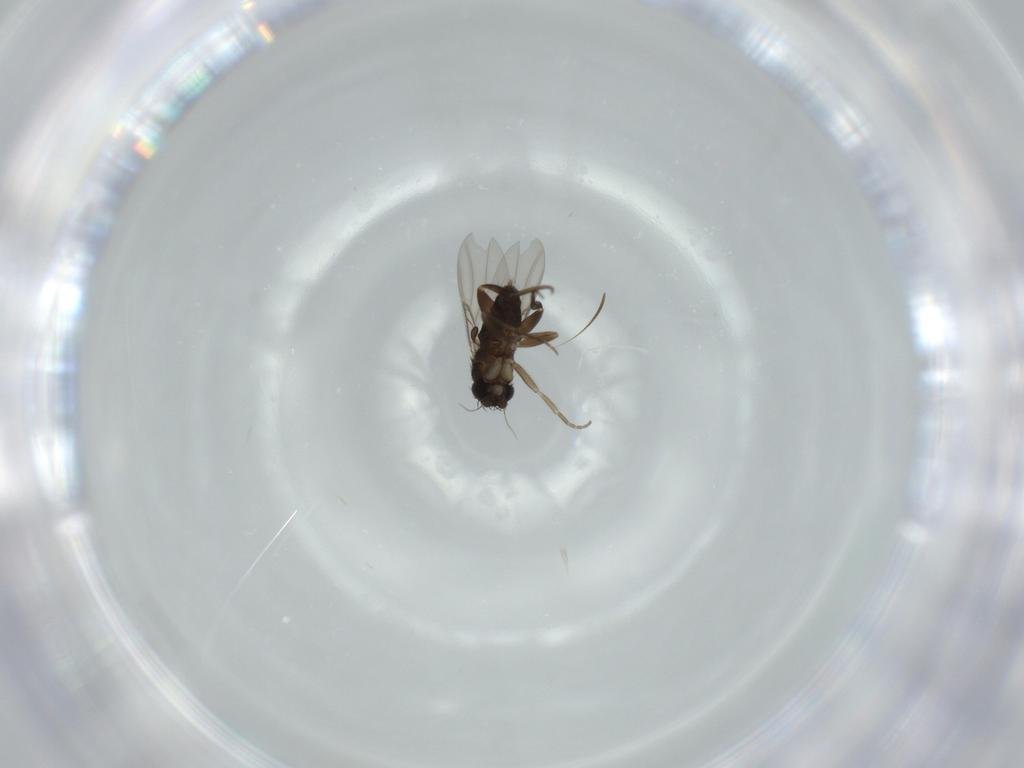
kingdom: Animalia
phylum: Arthropoda
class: Insecta
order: Diptera
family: Phoridae
